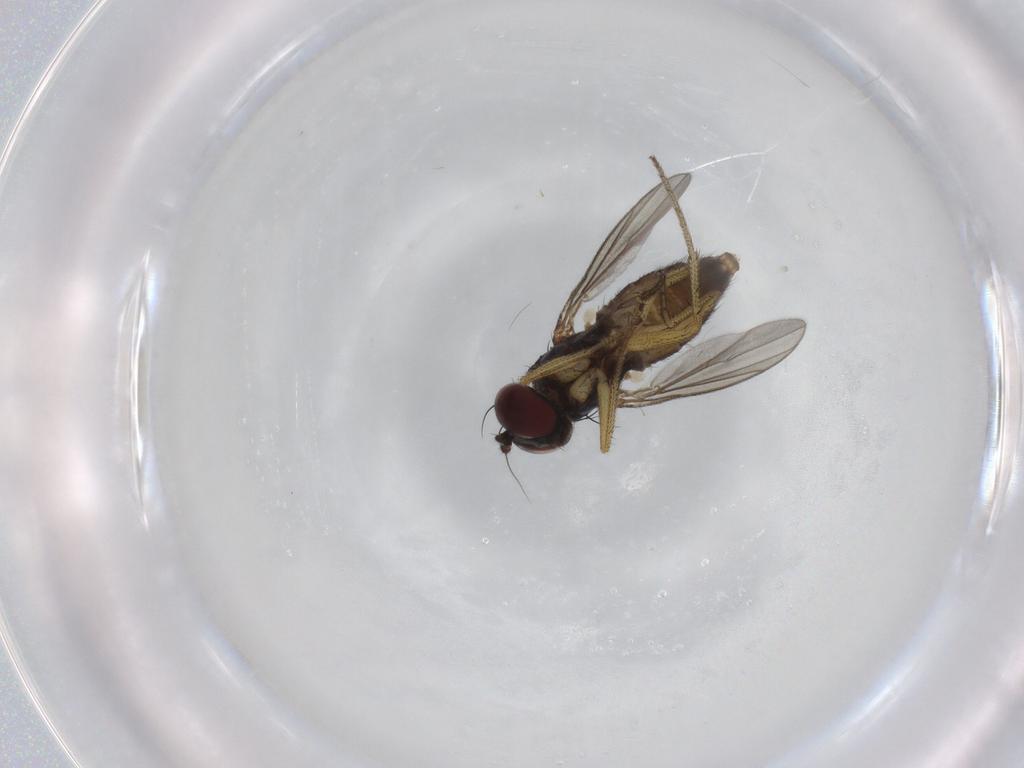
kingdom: Animalia
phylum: Arthropoda
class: Insecta
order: Diptera
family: Sciaridae
